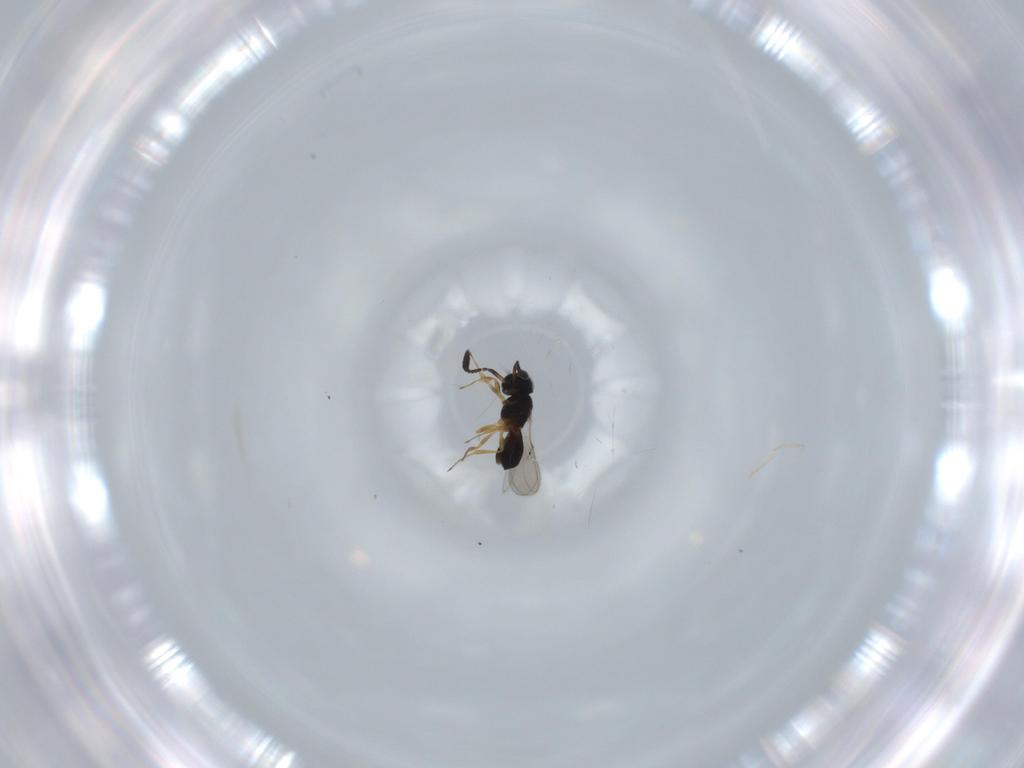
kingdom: Animalia
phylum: Arthropoda
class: Insecta
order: Hymenoptera
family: Scelionidae
